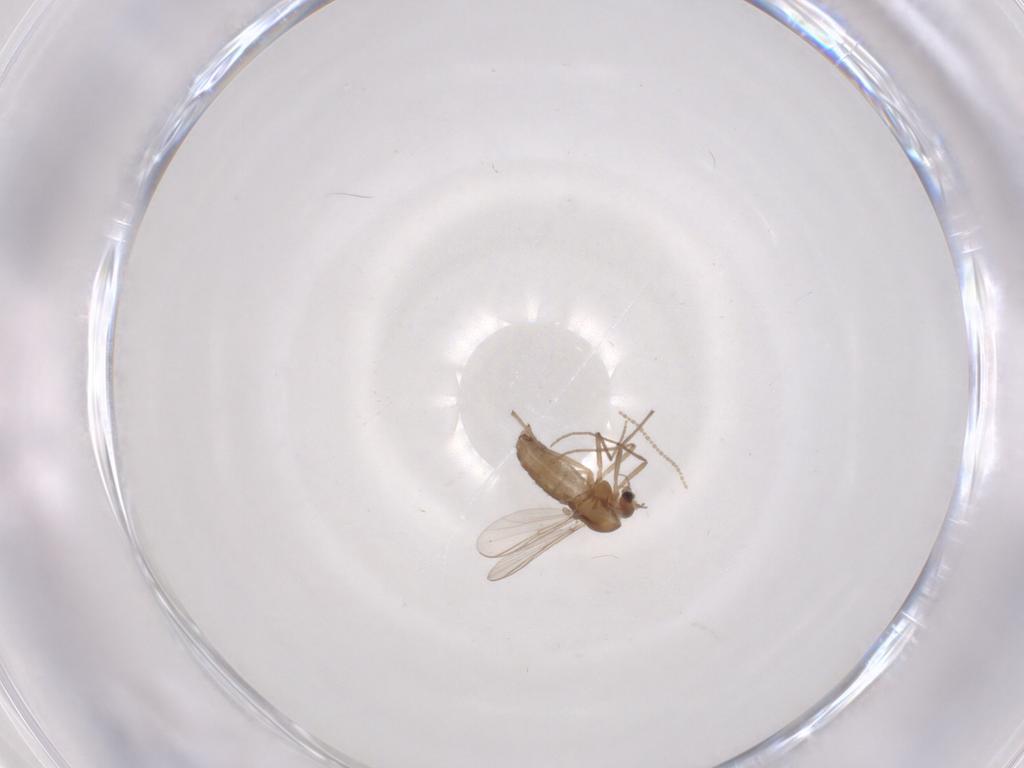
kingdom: Animalia
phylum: Arthropoda
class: Insecta
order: Diptera
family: Chironomidae
